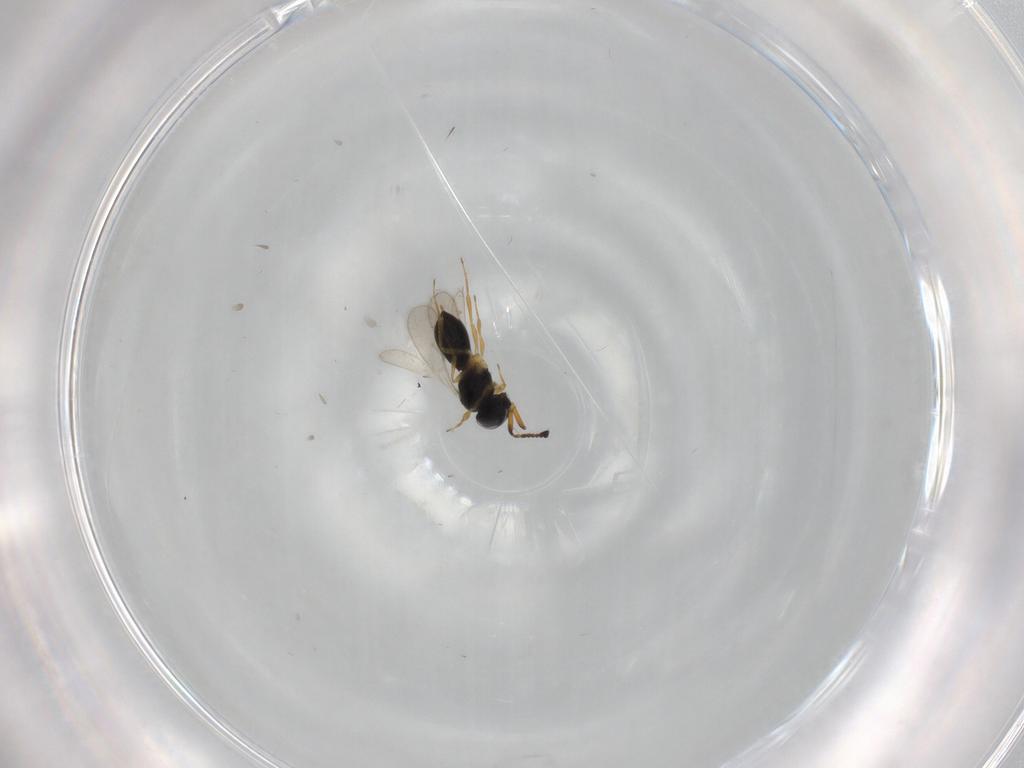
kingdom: Animalia
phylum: Arthropoda
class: Insecta
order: Hymenoptera
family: Scelionidae
